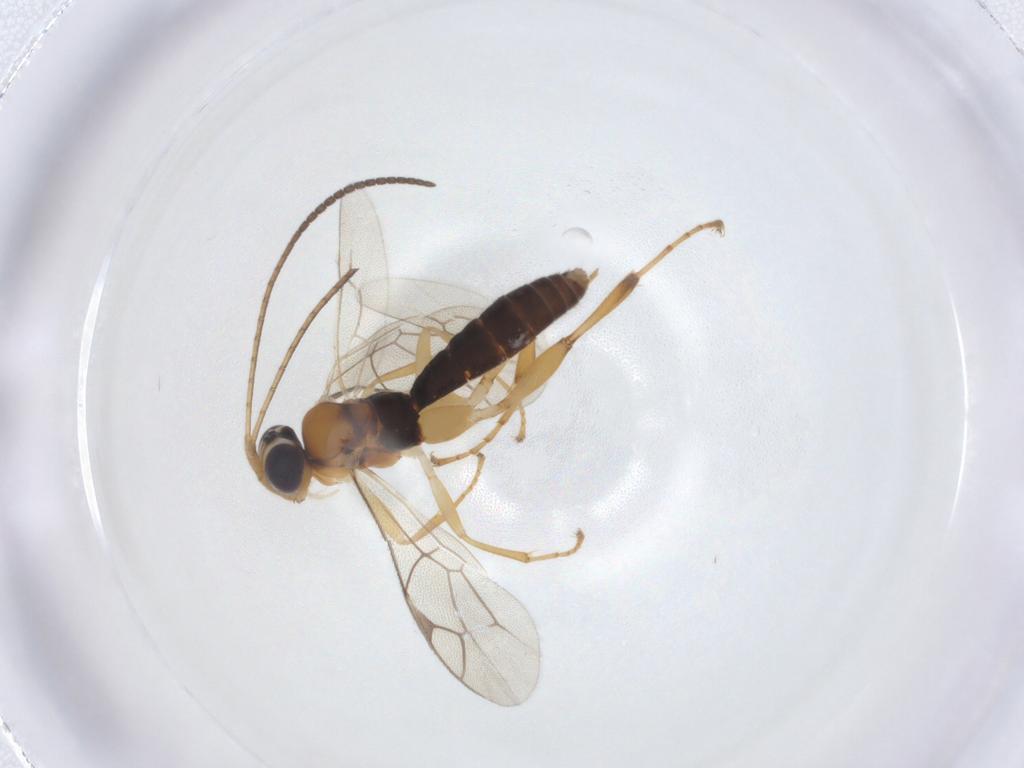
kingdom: Animalia
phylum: Arthropoda
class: Insecta
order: Hymenoptera
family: Ichneumonidae
